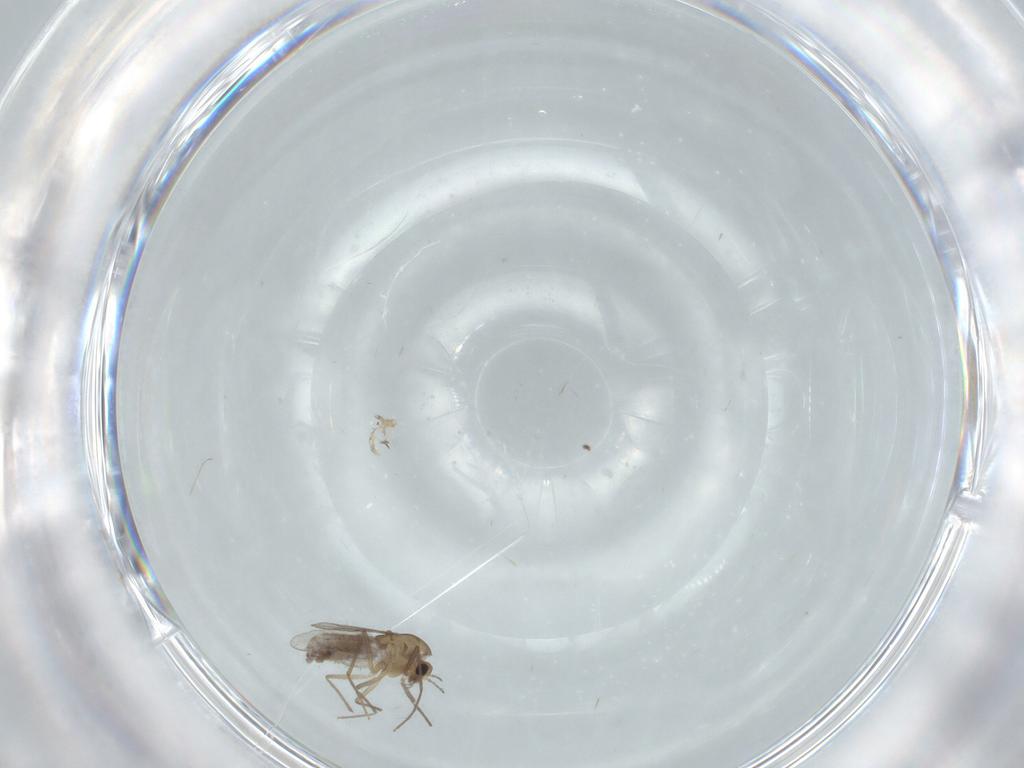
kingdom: Animalia
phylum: Arthropoda
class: Insecta
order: Diptera
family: Chironomidae
